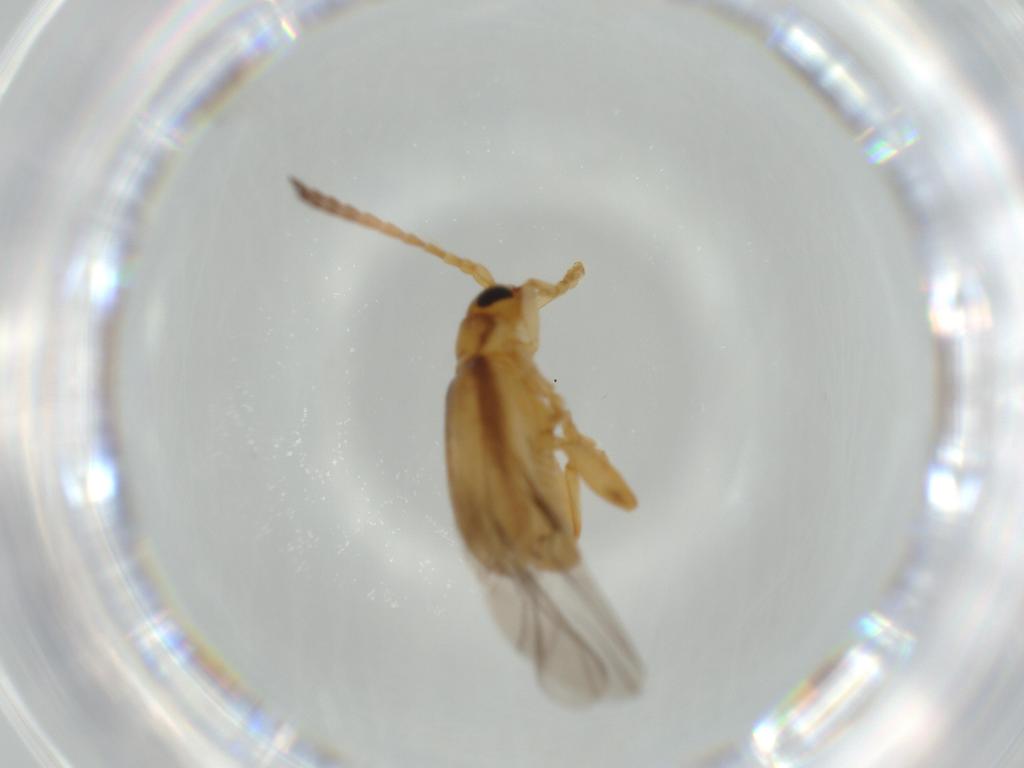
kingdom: Animalia
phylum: Arthropoda
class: Insecta
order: Coleoptera
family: Chrysomelidae
